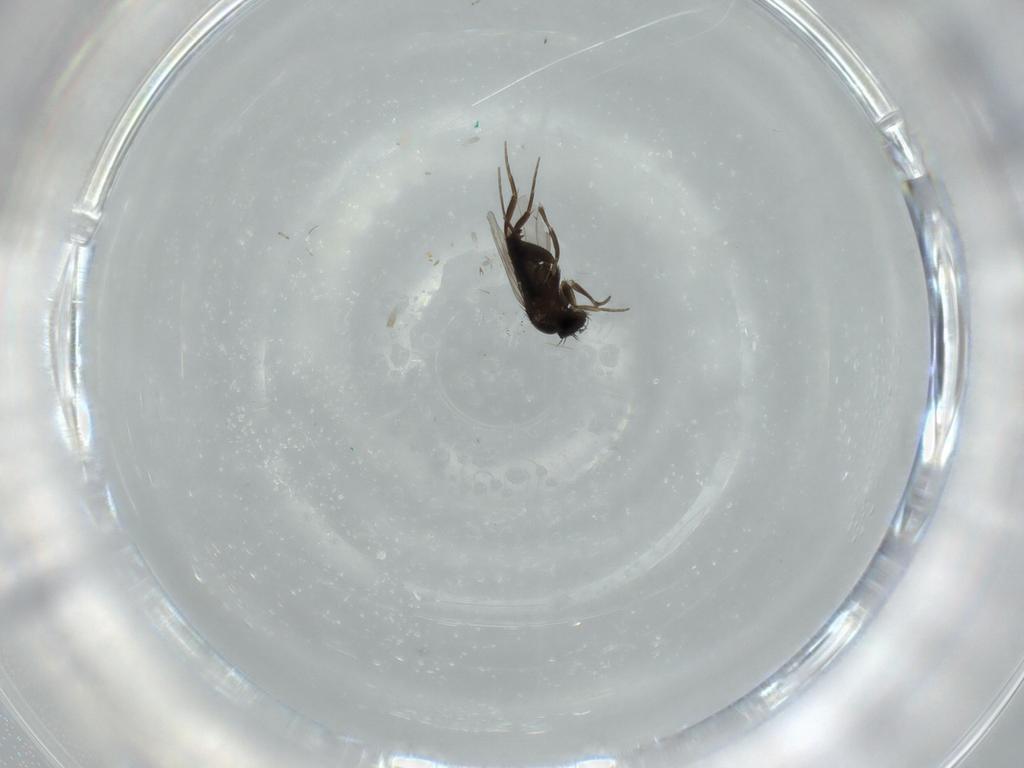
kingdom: Animalia
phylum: Arthropoda
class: Insecta
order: Diptera
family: Phoridae
